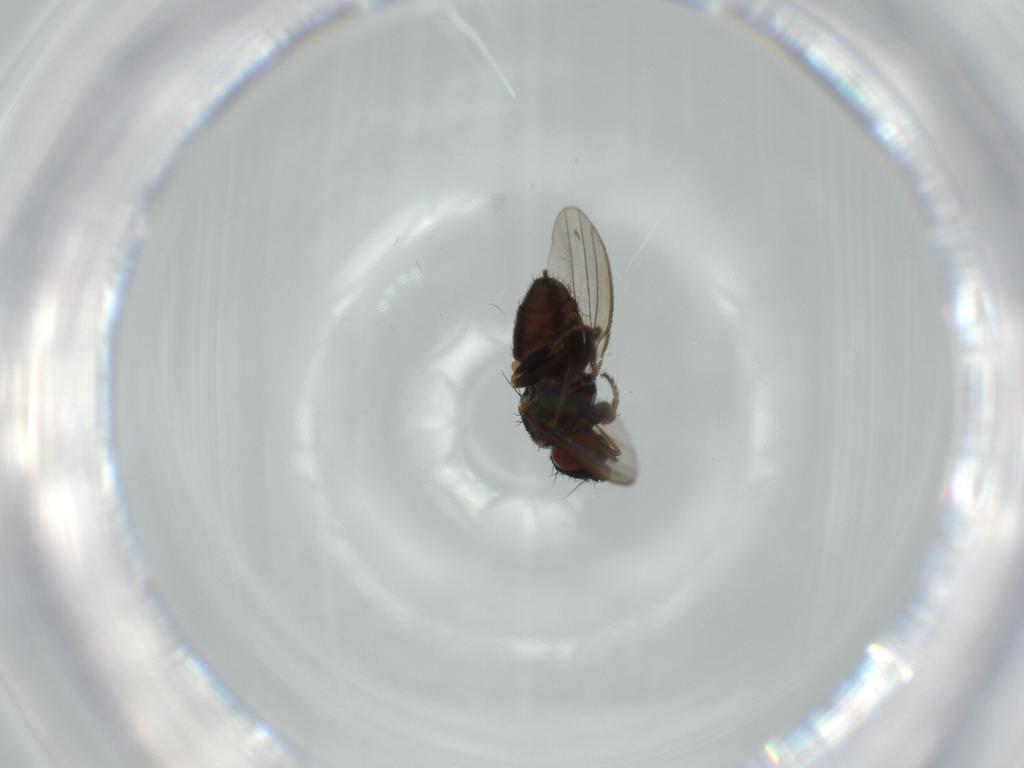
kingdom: Animalia
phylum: Arthropoda
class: Insecta
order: Diptera
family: Milichiidae
